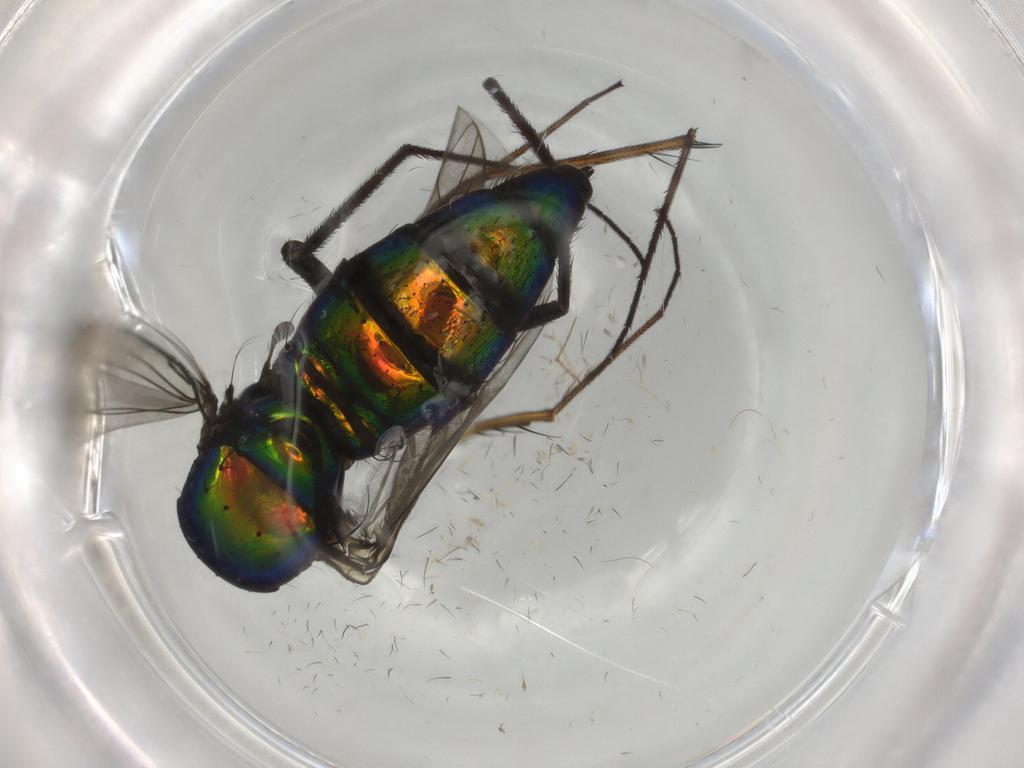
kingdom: Animalia
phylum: Arthropoda
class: Insecta
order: Diptera
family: Dolichopodidae
